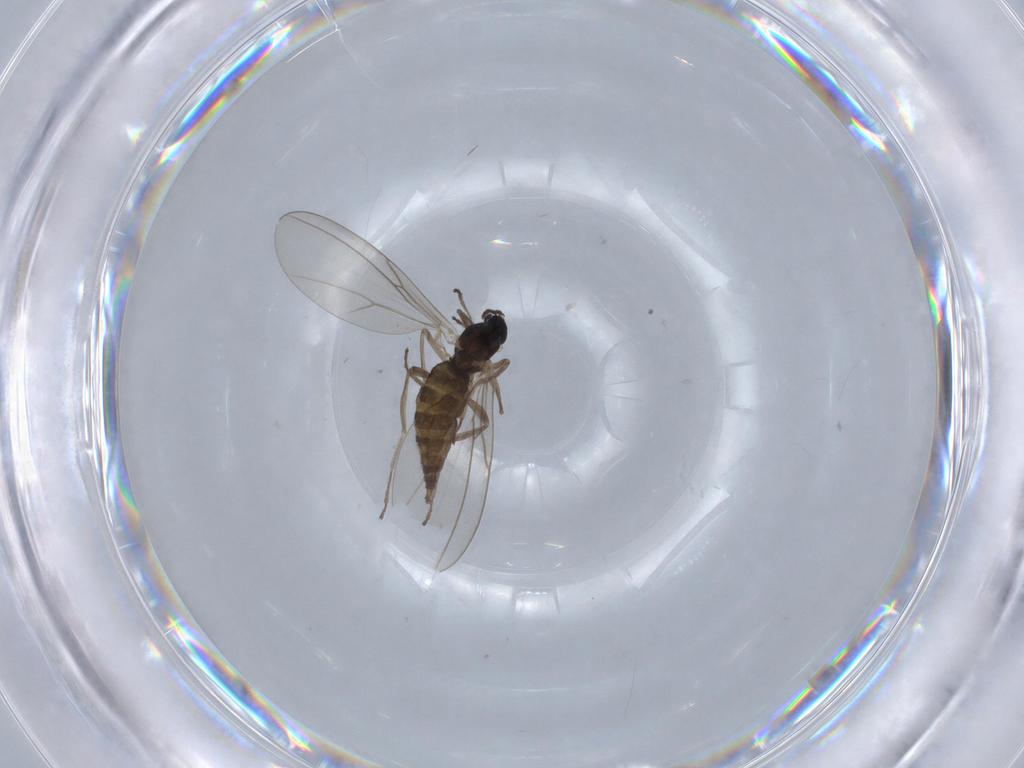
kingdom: Animalia
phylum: Arthropoda
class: Insecta
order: Diptera
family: Cecidomyiidae
